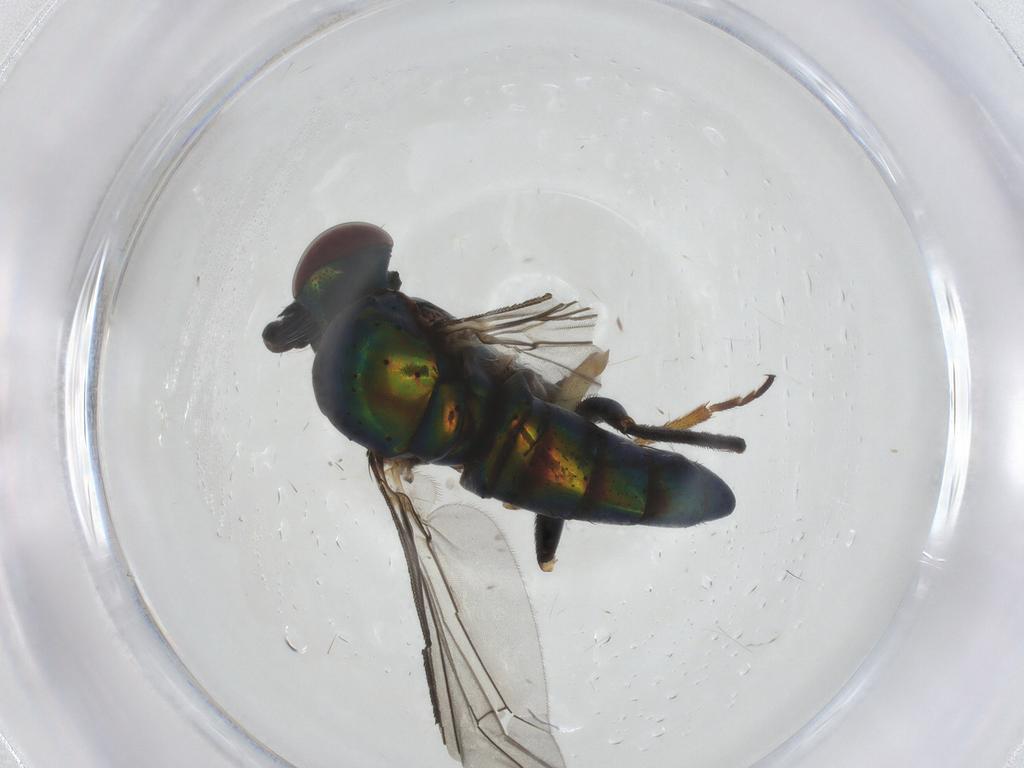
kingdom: Animalia
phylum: Arthropoda
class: Insecta
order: Diptera
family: Dolichopodidae
